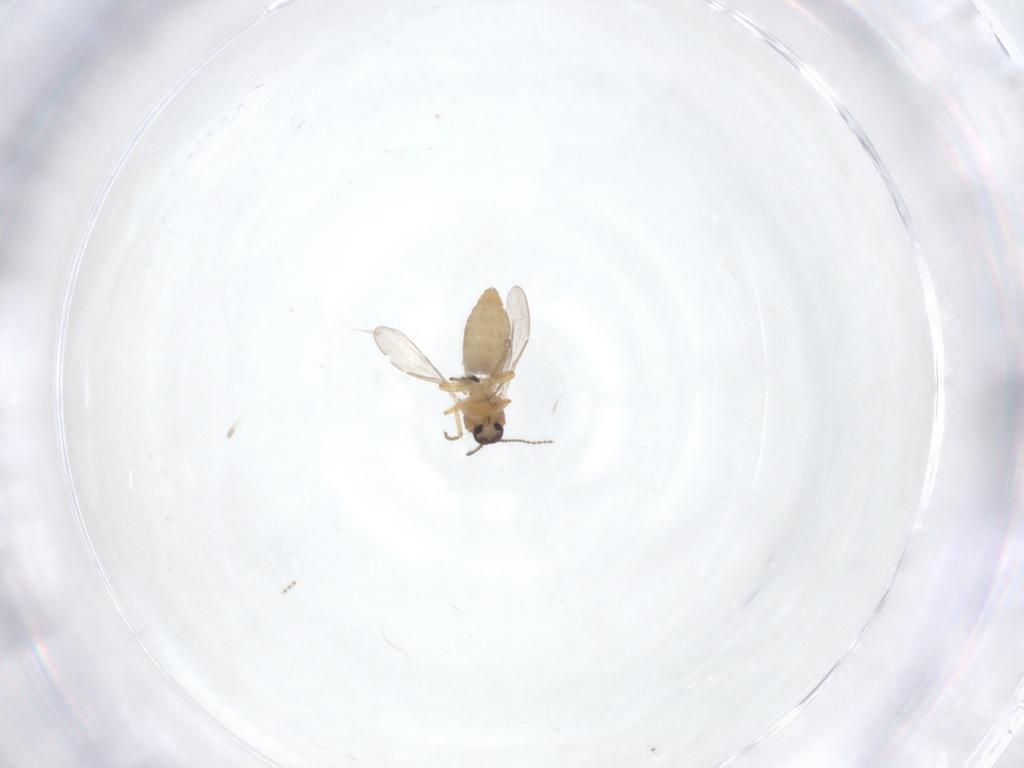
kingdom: Animalia
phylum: Arthropoda
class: Insecta
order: Diptera
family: Ceratopogonidae
